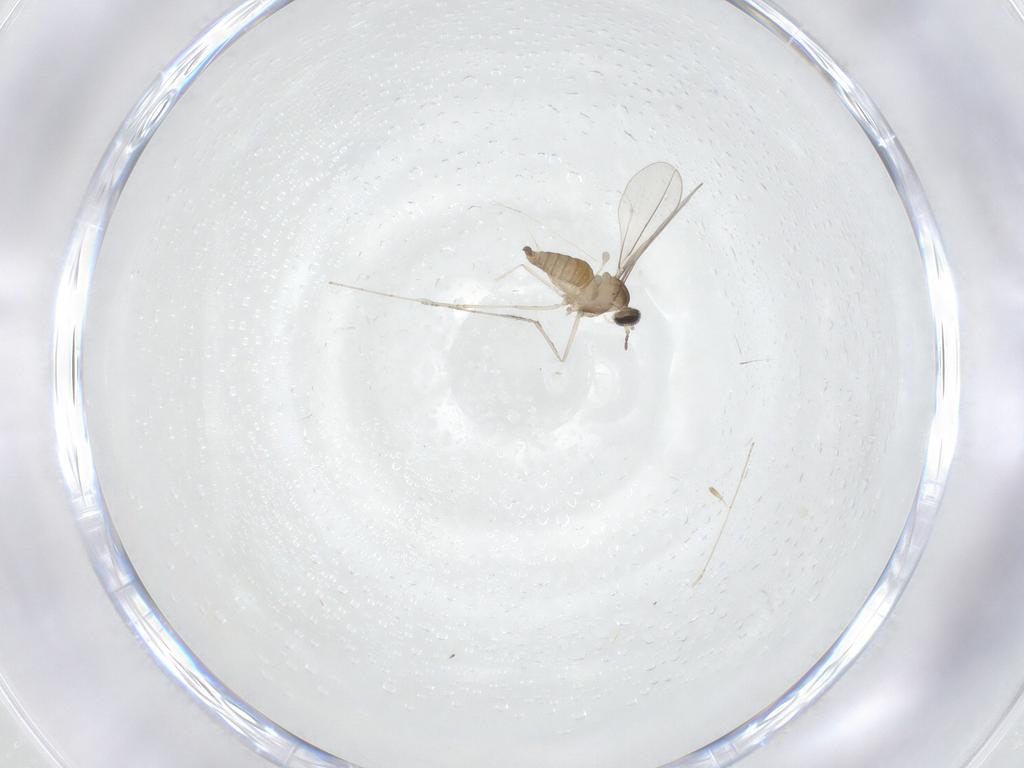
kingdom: Animalia
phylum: Arthropoda
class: Insecta
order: Diptera
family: Cecidomyiidae
